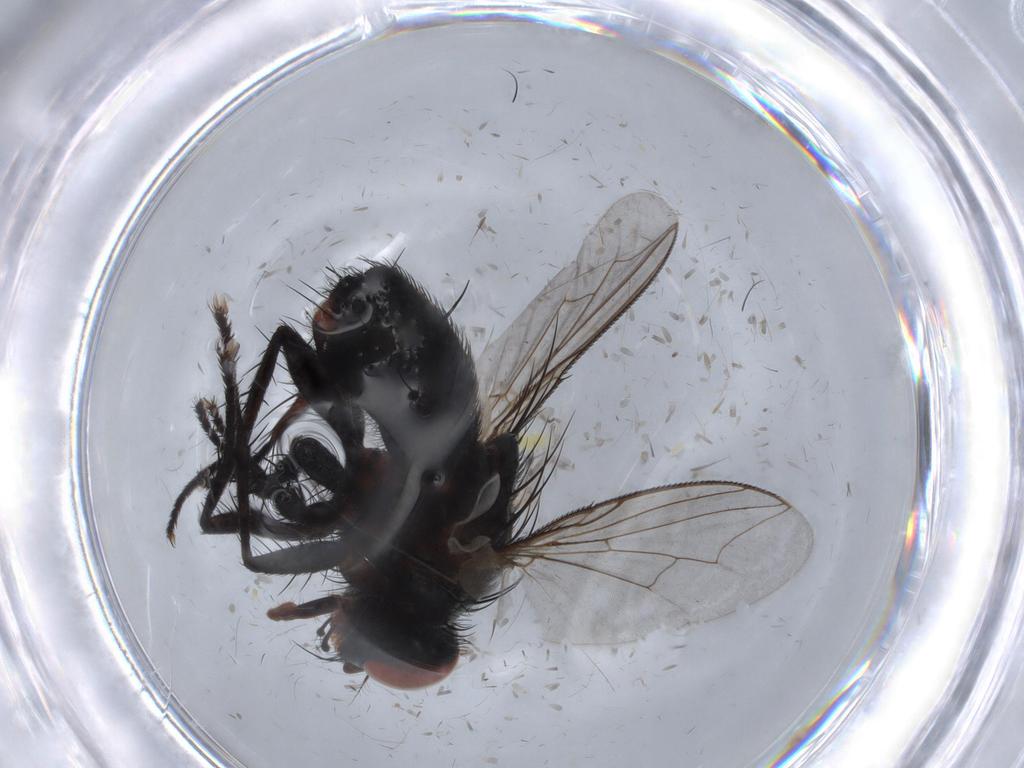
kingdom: Animalia
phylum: Arthropoda
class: Insecta
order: Diptera
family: Sarcophagidae
